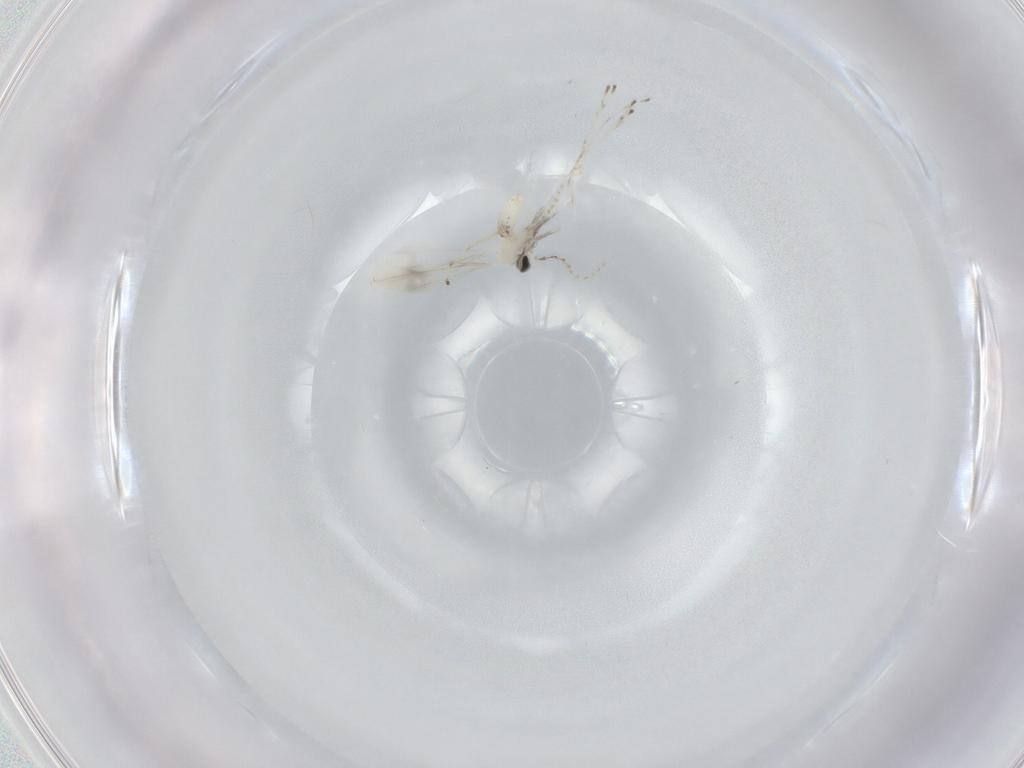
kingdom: Animalia
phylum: Arthropoda
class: Insecta
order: Diptera
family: Cecidomyiidae
